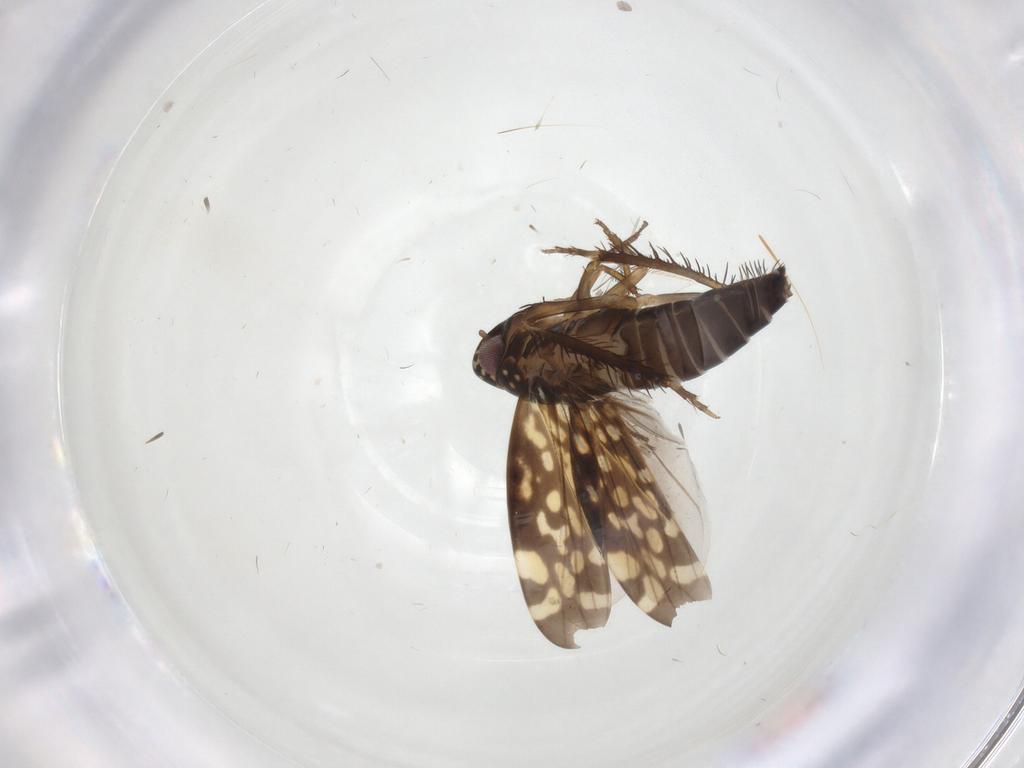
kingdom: Animalia
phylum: Arthropoda
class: Insecta
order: Hemiptera
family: Cicadellidae
